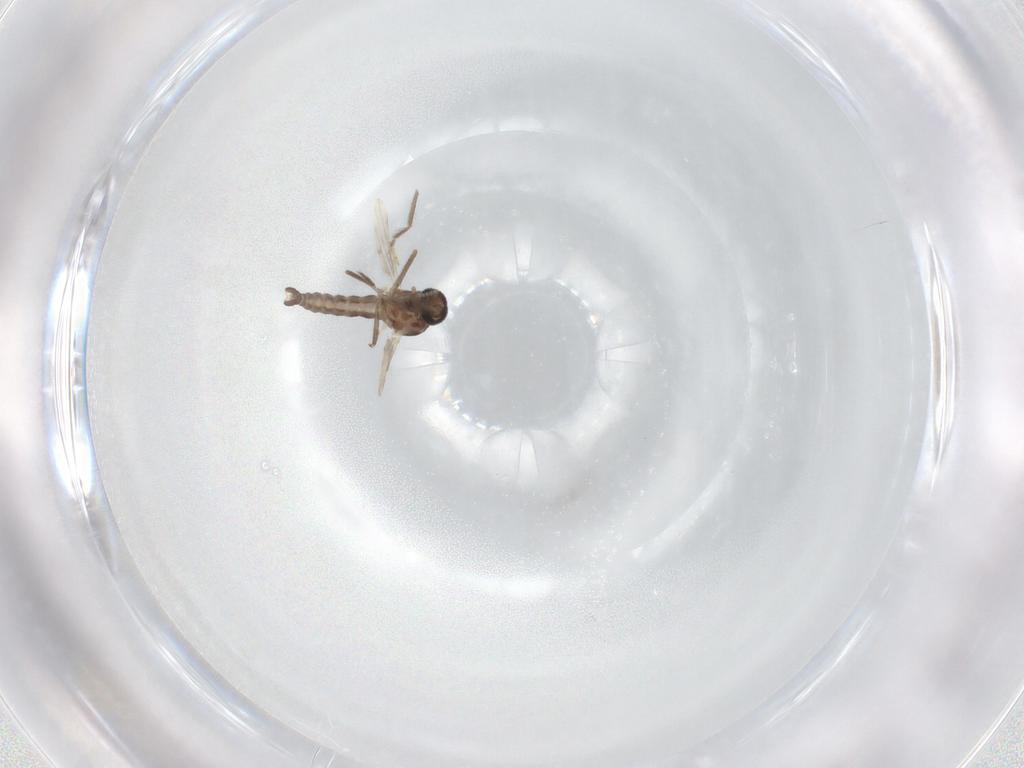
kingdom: Animalia
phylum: Arthropoda
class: Insecta
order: Diptera
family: Ceratopogonidae
